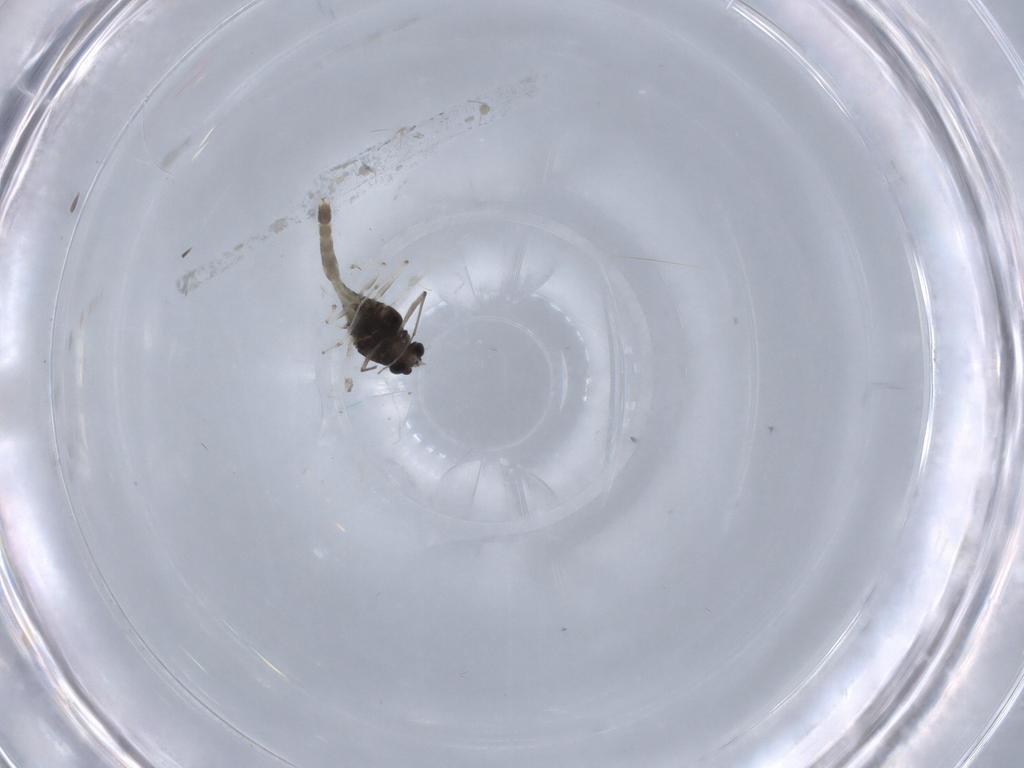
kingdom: Animalia
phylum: Arthropoda
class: Insecta
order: Diptera
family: Chironomidae
